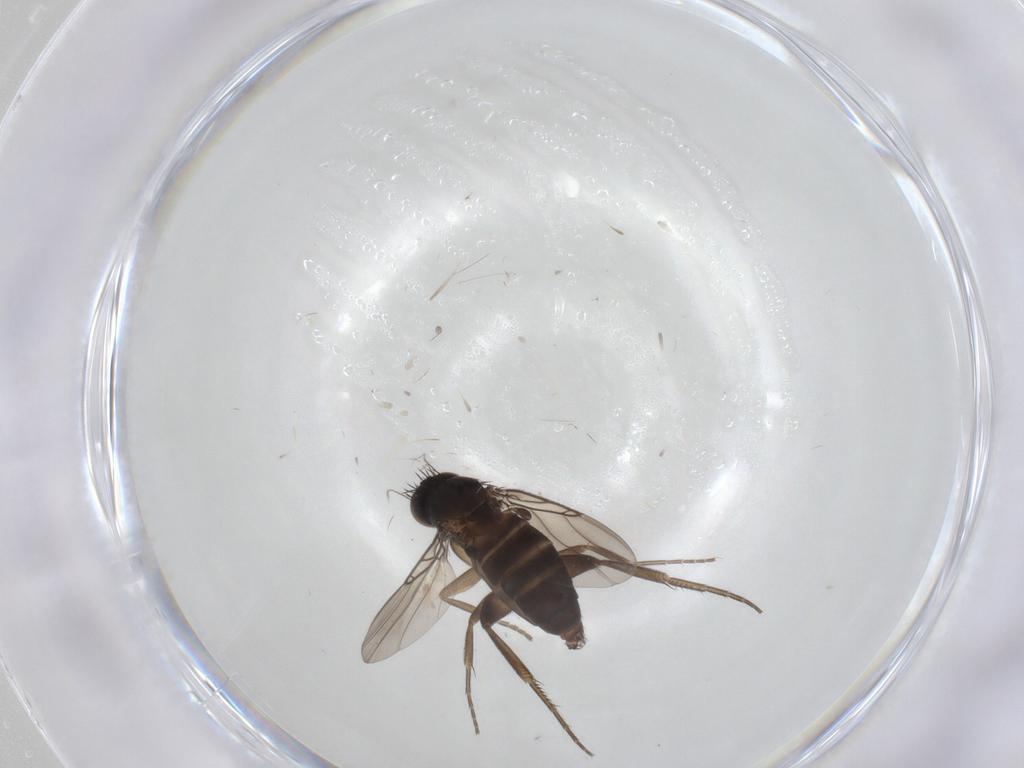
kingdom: Animalia
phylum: Arthropoda
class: Insecta
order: Diptera
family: Phoridae
